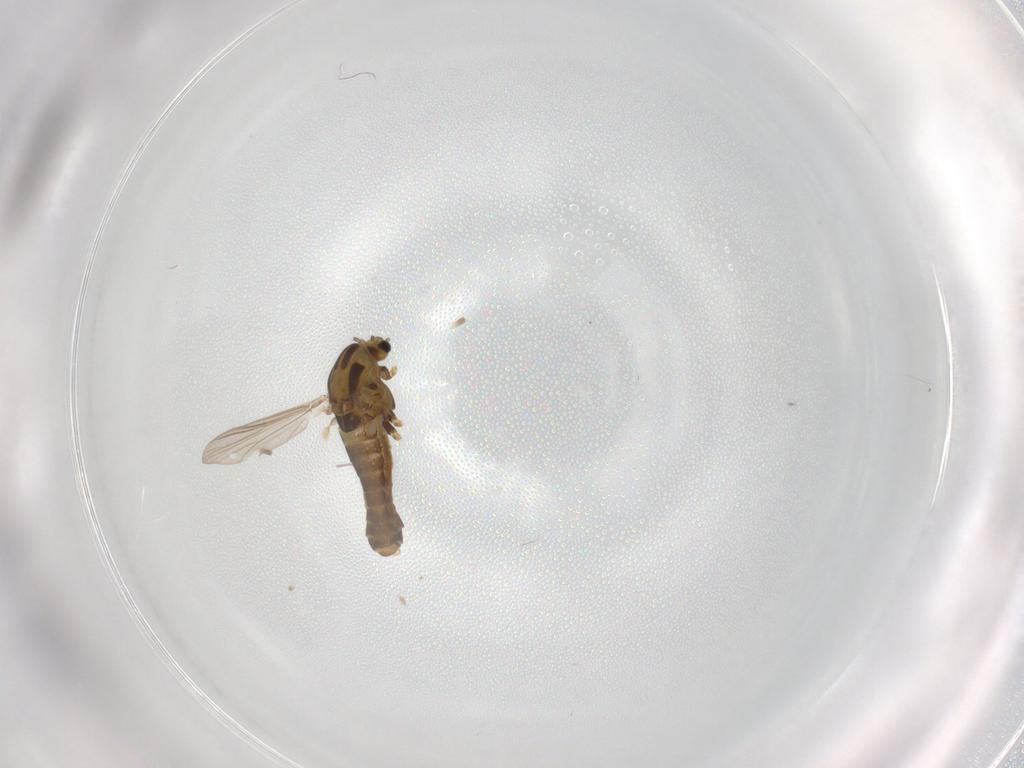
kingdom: Animalia
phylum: Arthropoda
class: Insecta
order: Diptera
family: Chironomidae
